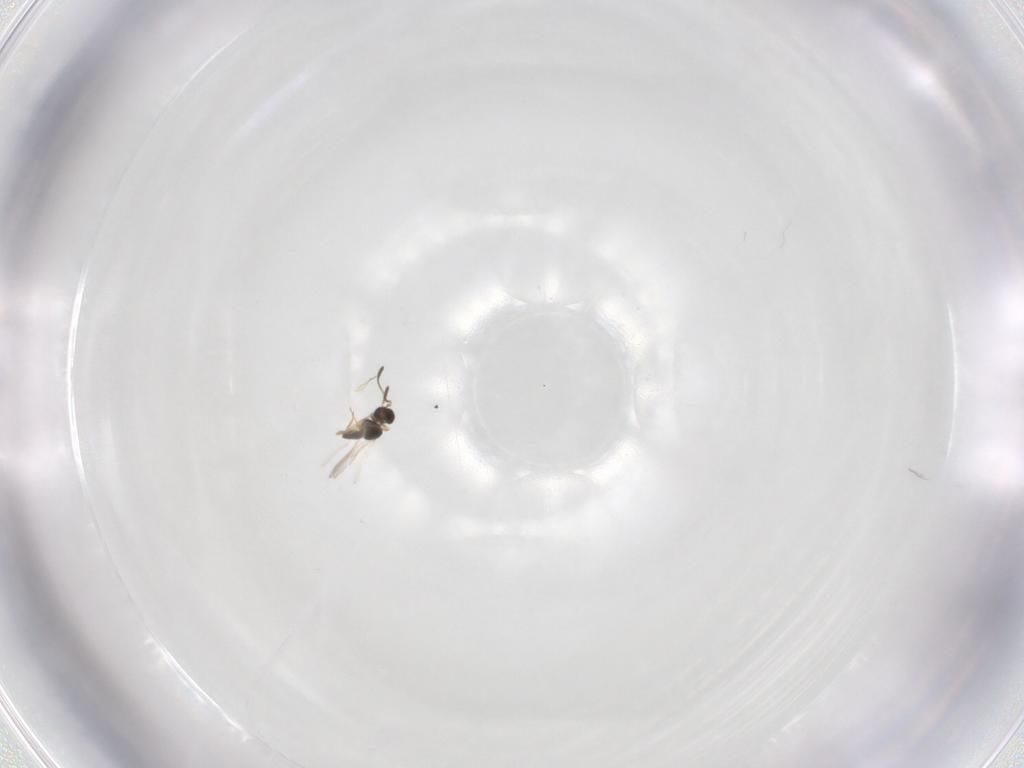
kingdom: Animalia
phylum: Arthropoda
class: Insecta
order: Hymenoptera
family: Scelionidae
